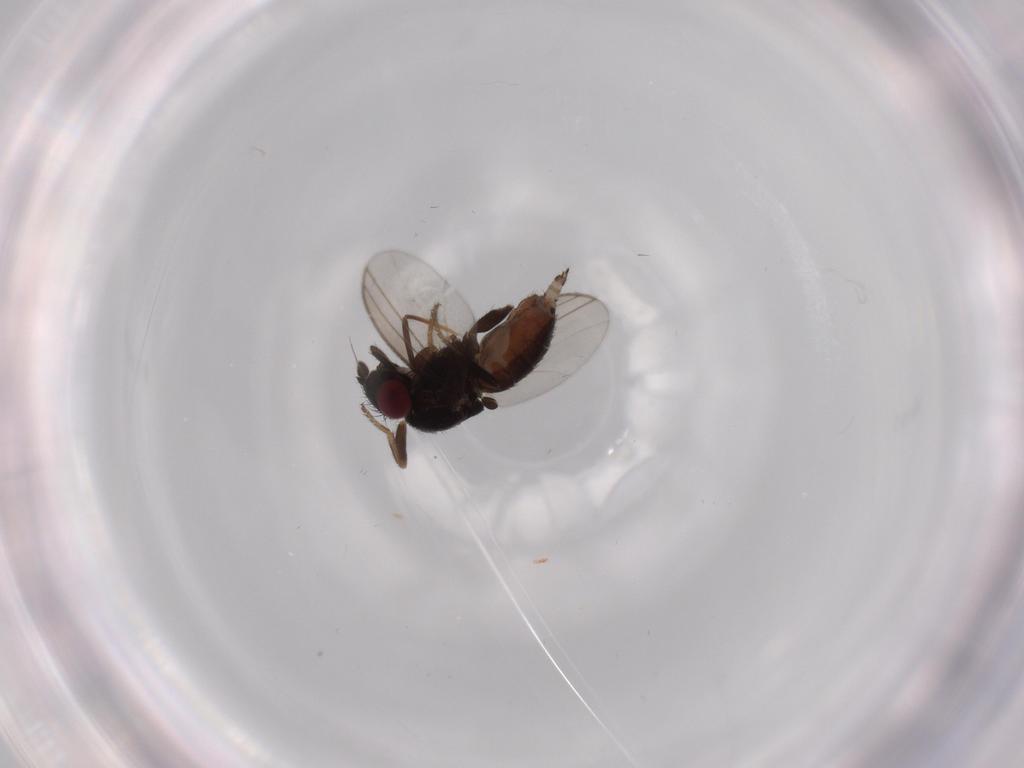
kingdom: Animalia
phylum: Arthropoda
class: Insecta
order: Diptera
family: Milichiidae
